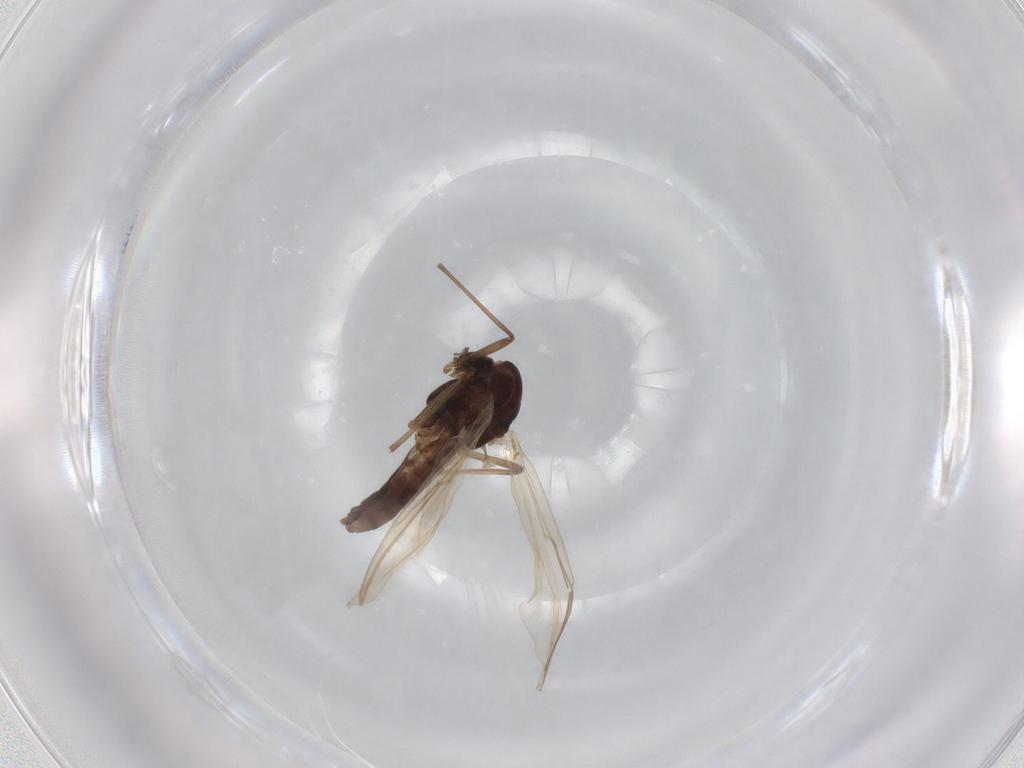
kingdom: Animalia
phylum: Arthropoda
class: Insecta
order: Diptera
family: Chironomidae
